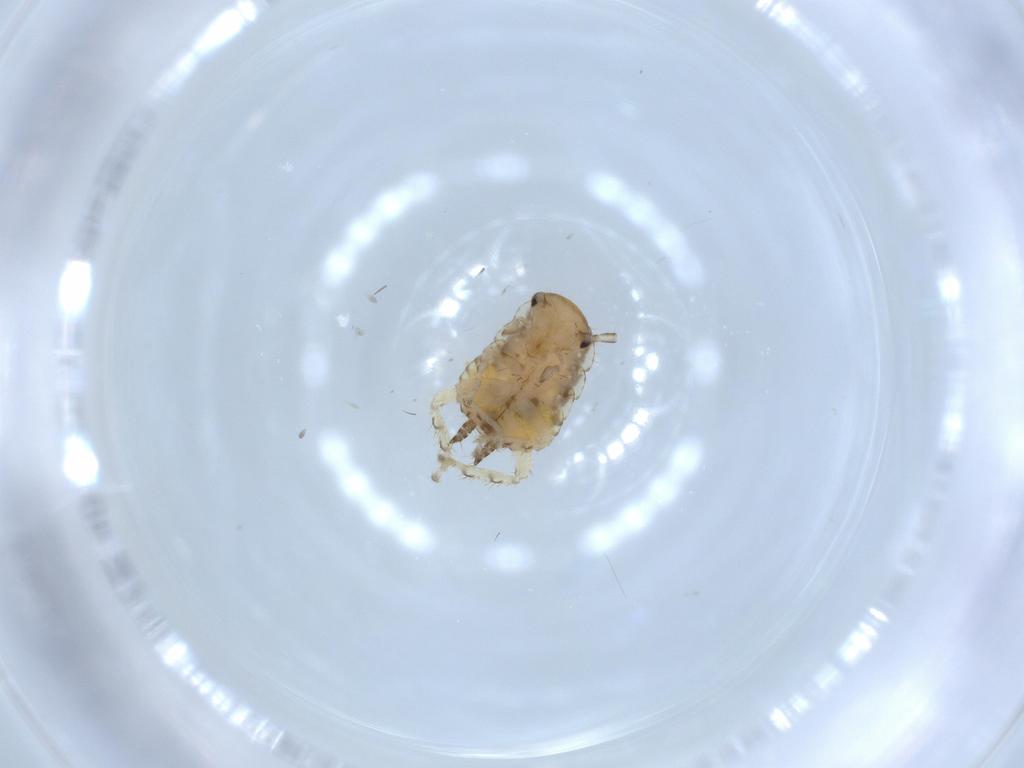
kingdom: Animalia
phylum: Arthropoda
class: Insecta
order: Blattodea
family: Ectobiidae
